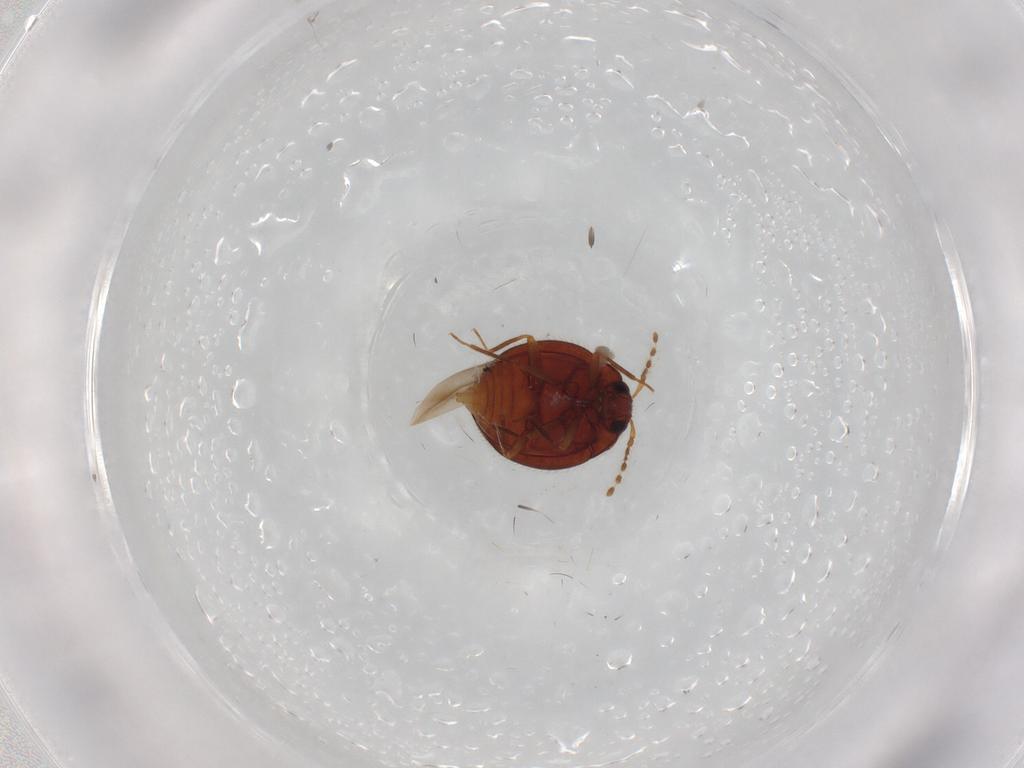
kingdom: Animalia
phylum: Arthropoda
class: Insecta
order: Coleoptera
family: Anamorphidae
